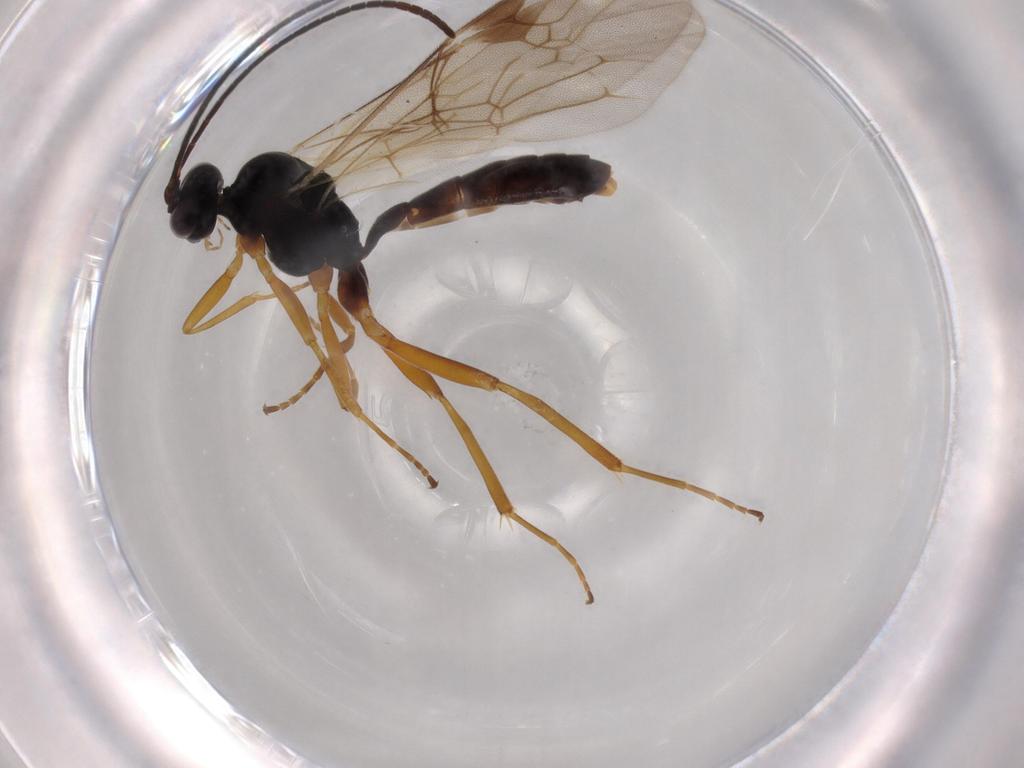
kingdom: Animalia
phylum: Arthropoda
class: Insecta
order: Hymenoptera
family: Ichneumonidae
